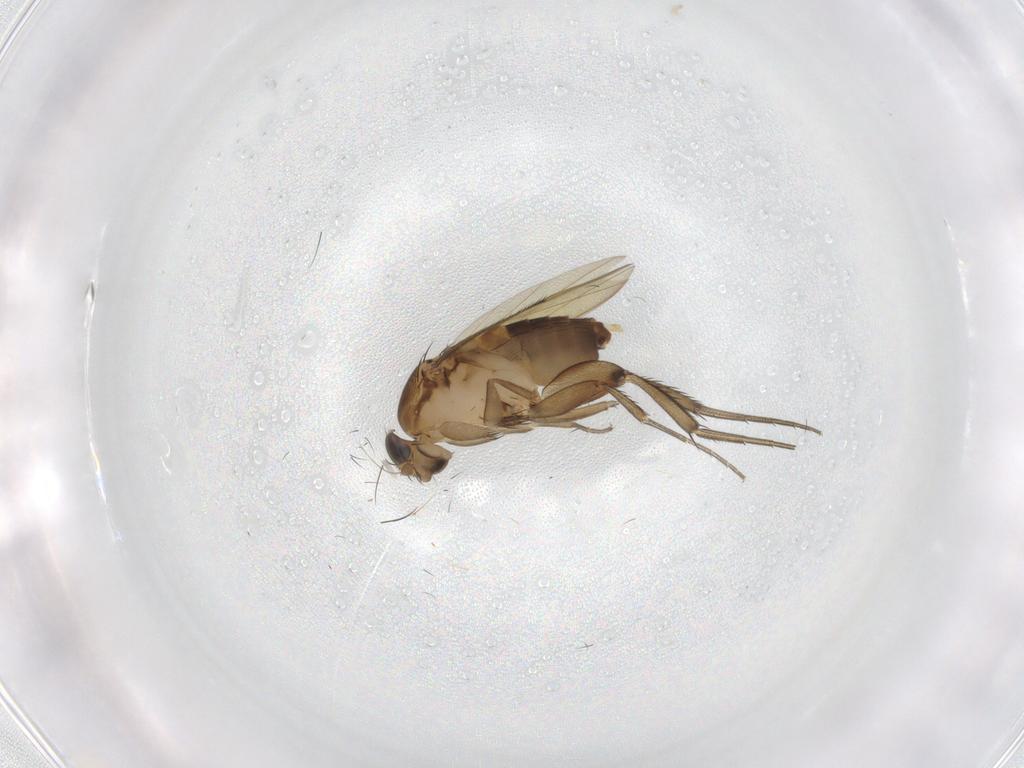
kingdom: Animalia
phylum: Arthropoda
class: Insecta
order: Diptera
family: Phoridae
